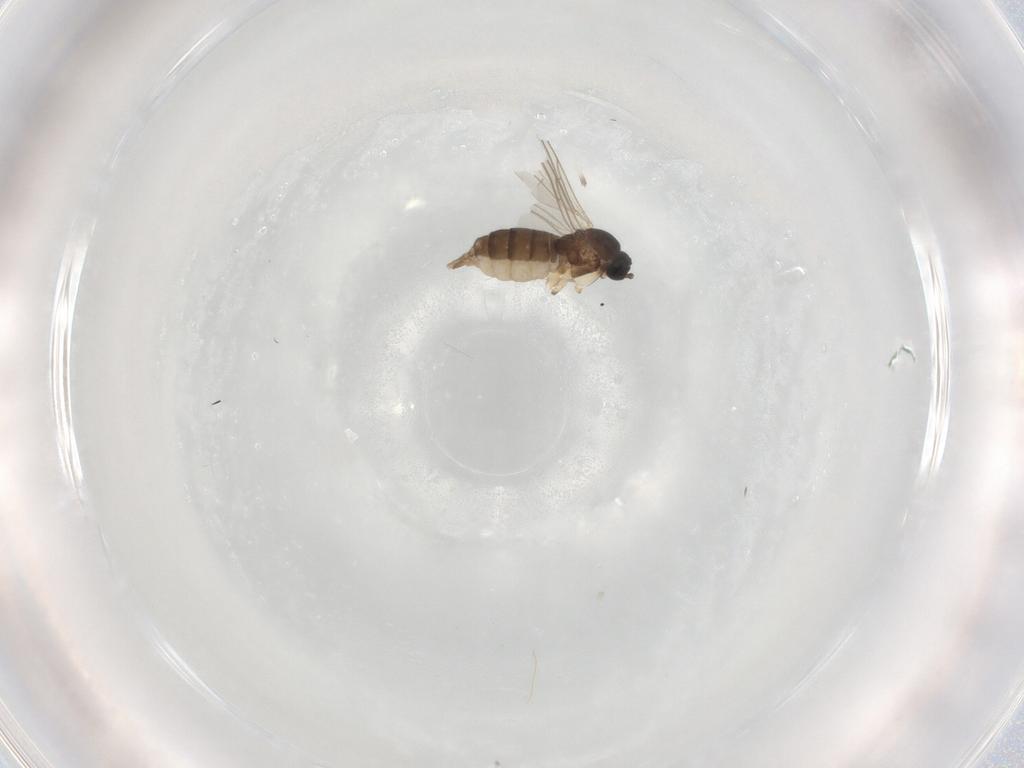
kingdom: Animalia
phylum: Arthropoda
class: Insecta
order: Diptera
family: Sciaridae
